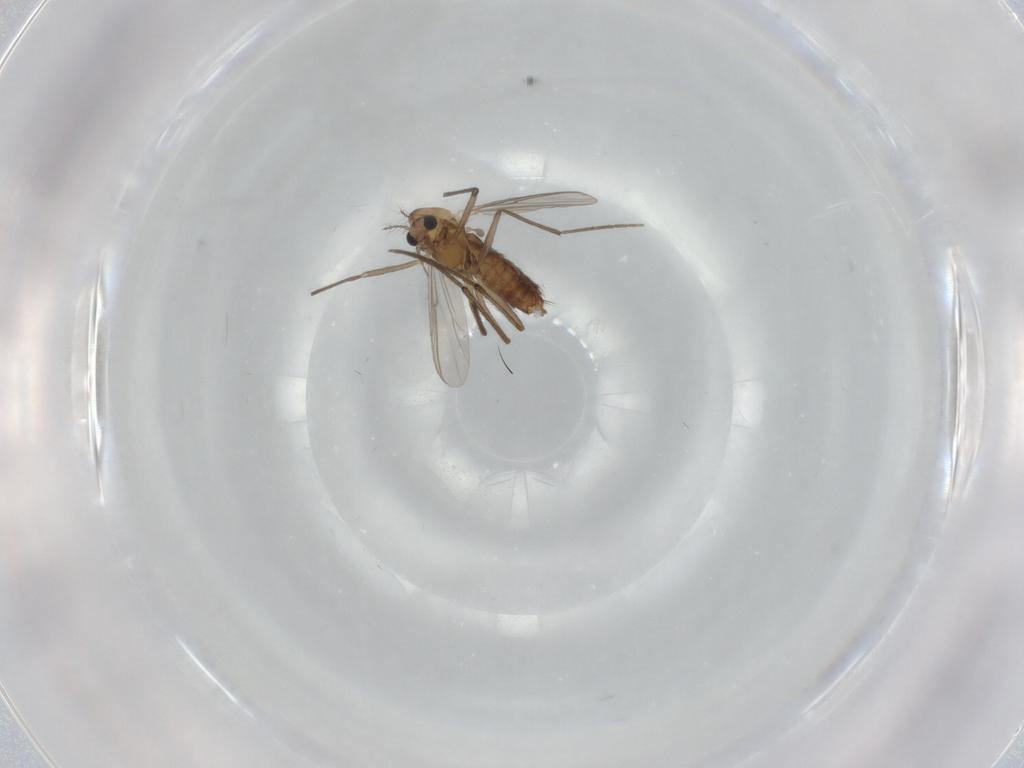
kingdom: Animalia
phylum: Arthropoda
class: Insecta
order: Diptera
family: Chironomidae
